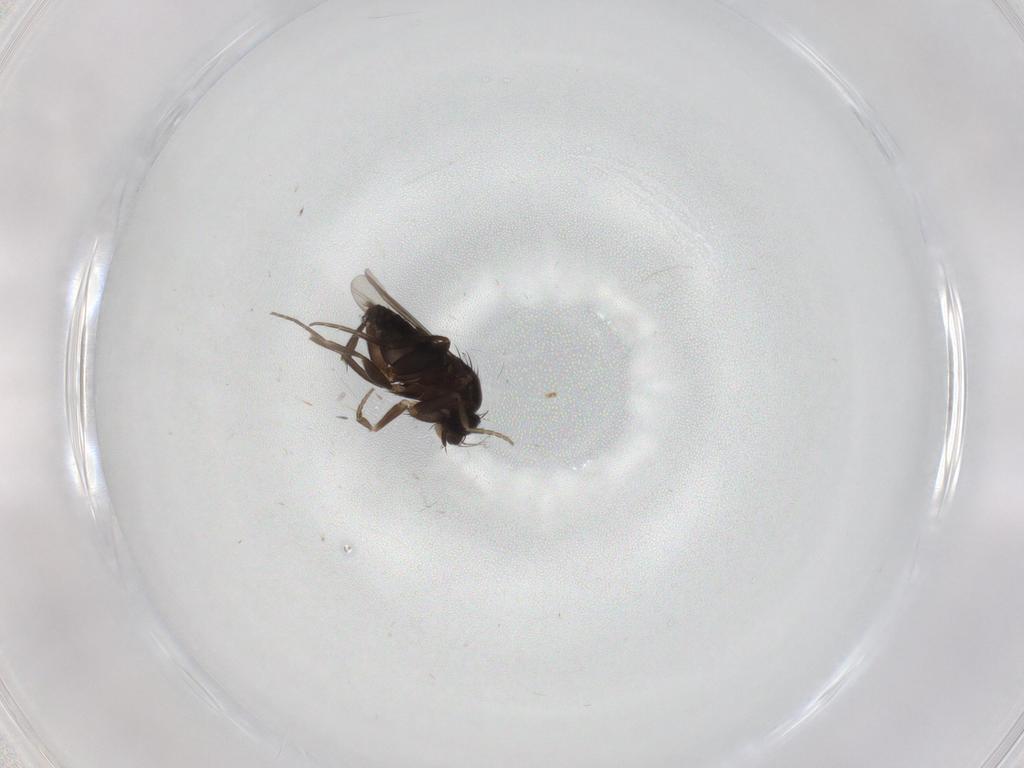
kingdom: Animalia
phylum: Arthropoda
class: Insecta
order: Diptera
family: Phoridae
